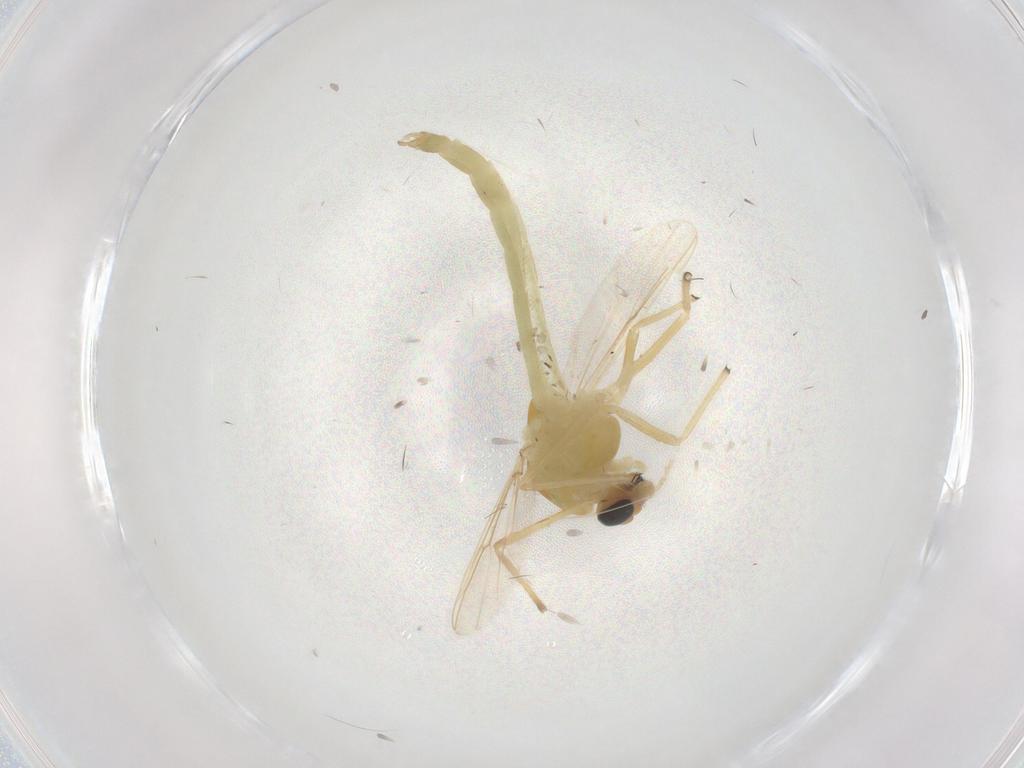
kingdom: Animalia
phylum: Arthropoda
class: Insecta
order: Diptera
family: Chironomidae
